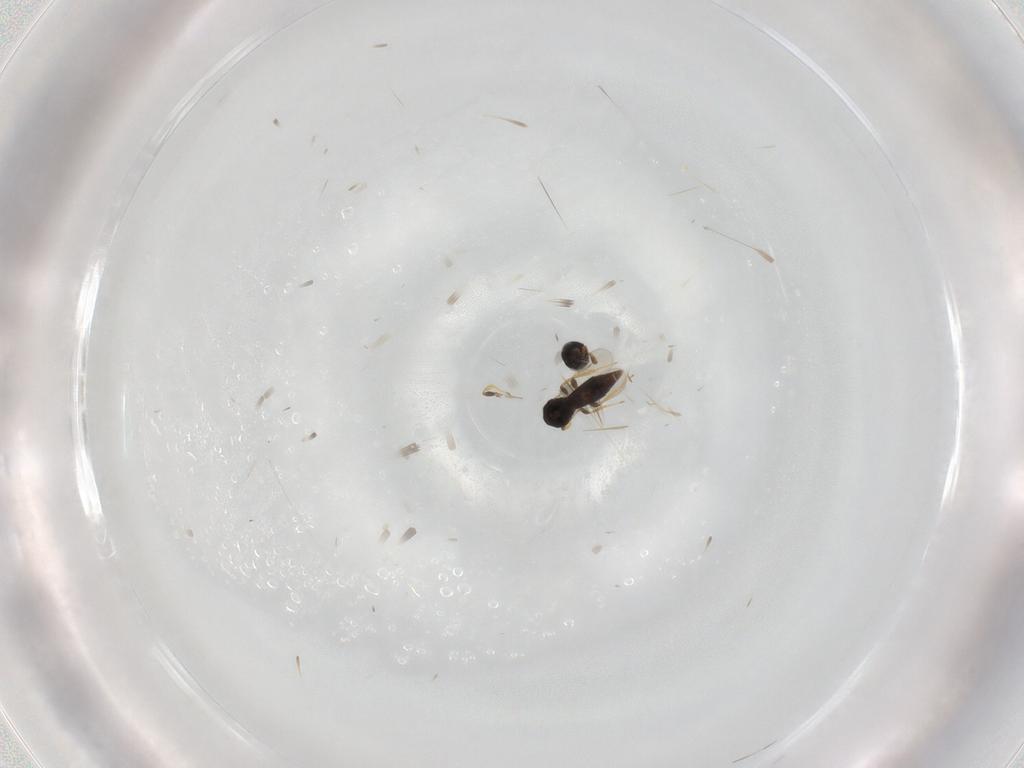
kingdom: Animalia
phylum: Arthropoda
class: Insecta
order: Hymenoptera
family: Platygastridae
